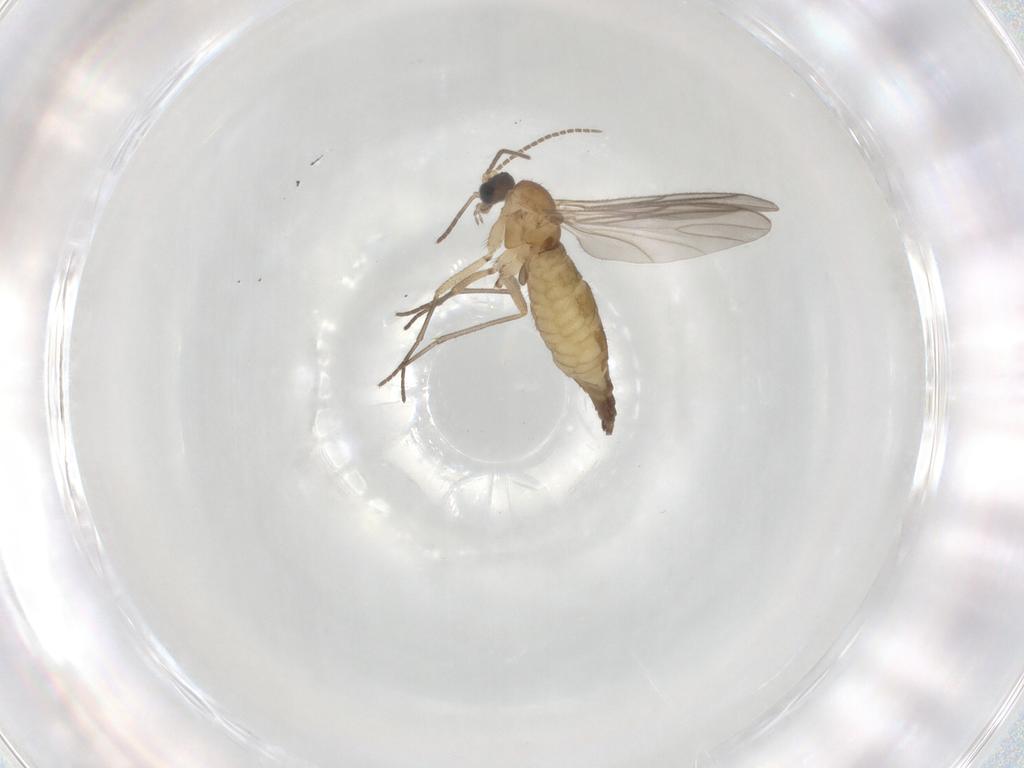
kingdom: Animalia
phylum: Arthropoda
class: Insecta
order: Diptera
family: Sciaridae
